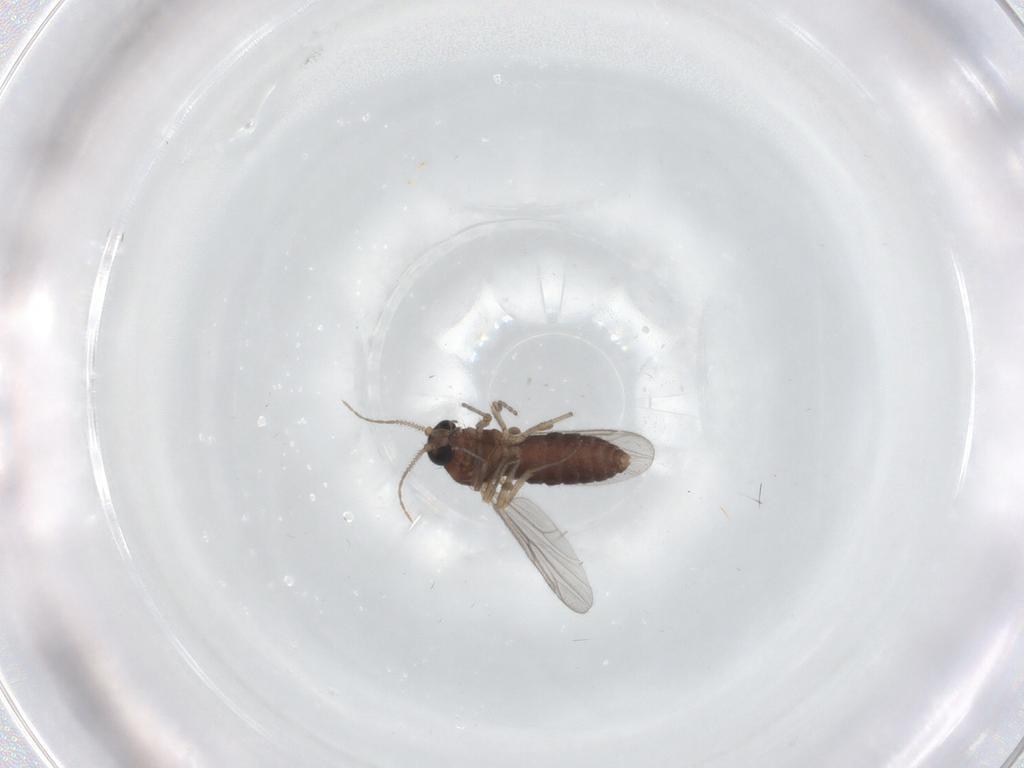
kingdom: Animalia
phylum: Arthropoda
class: Insecta
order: Diptera
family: Ceratopogonidae
